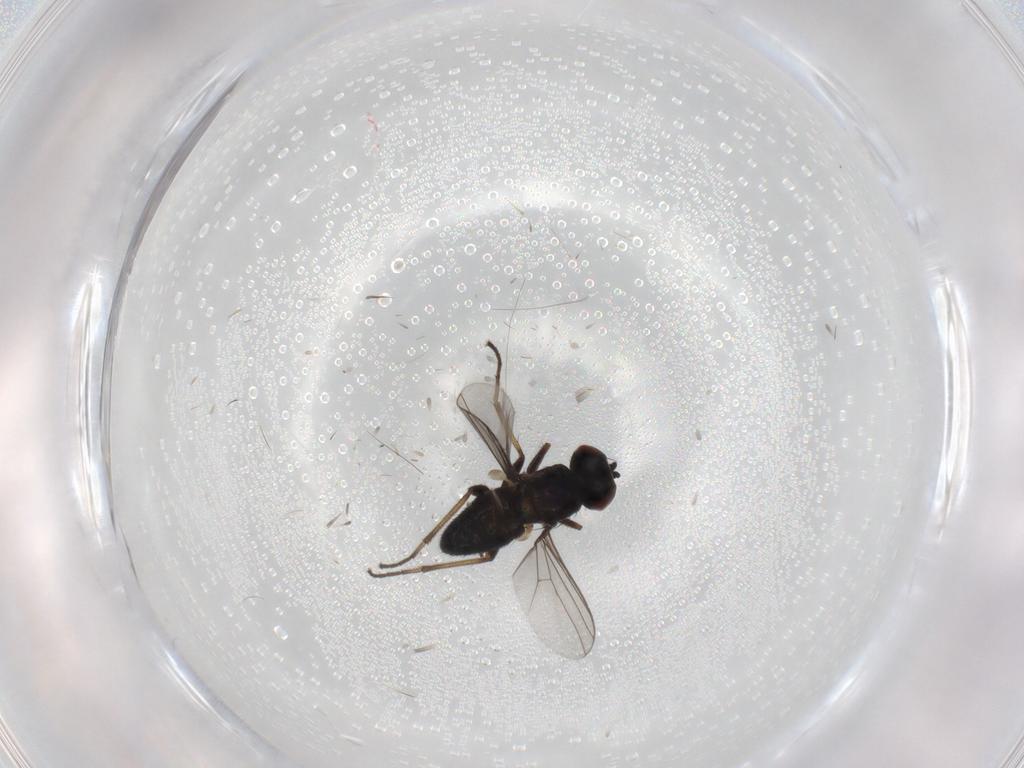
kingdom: Animalia
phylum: Arthropoda
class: Insecta
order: Diptera
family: Dolichopodidae
